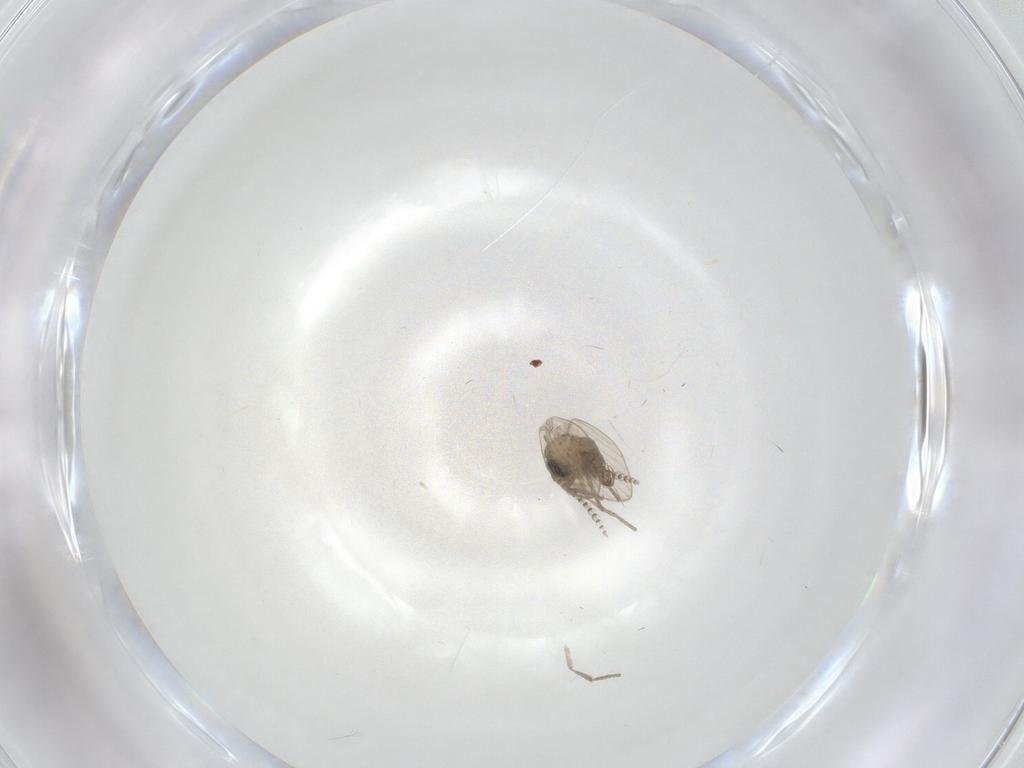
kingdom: Animalia
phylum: Arthropoda
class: Insecta
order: Diptera
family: Psychodidae
